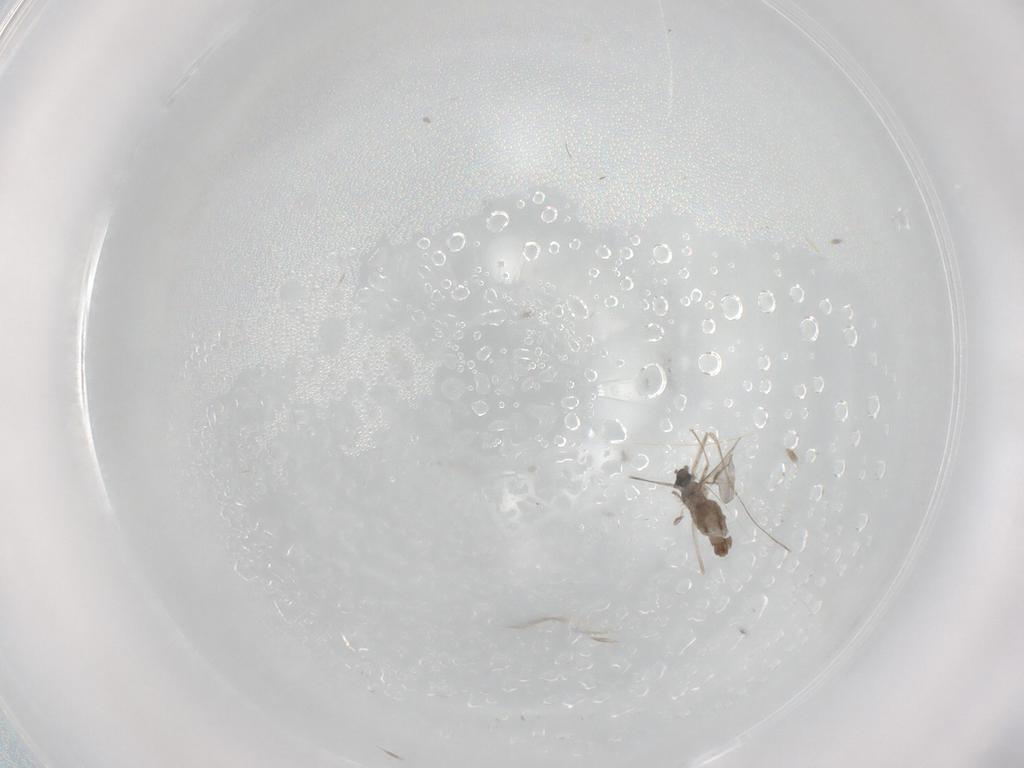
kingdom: Animalia
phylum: Arthropoda
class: Insecta
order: Diptera
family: Cecidomyiidae
